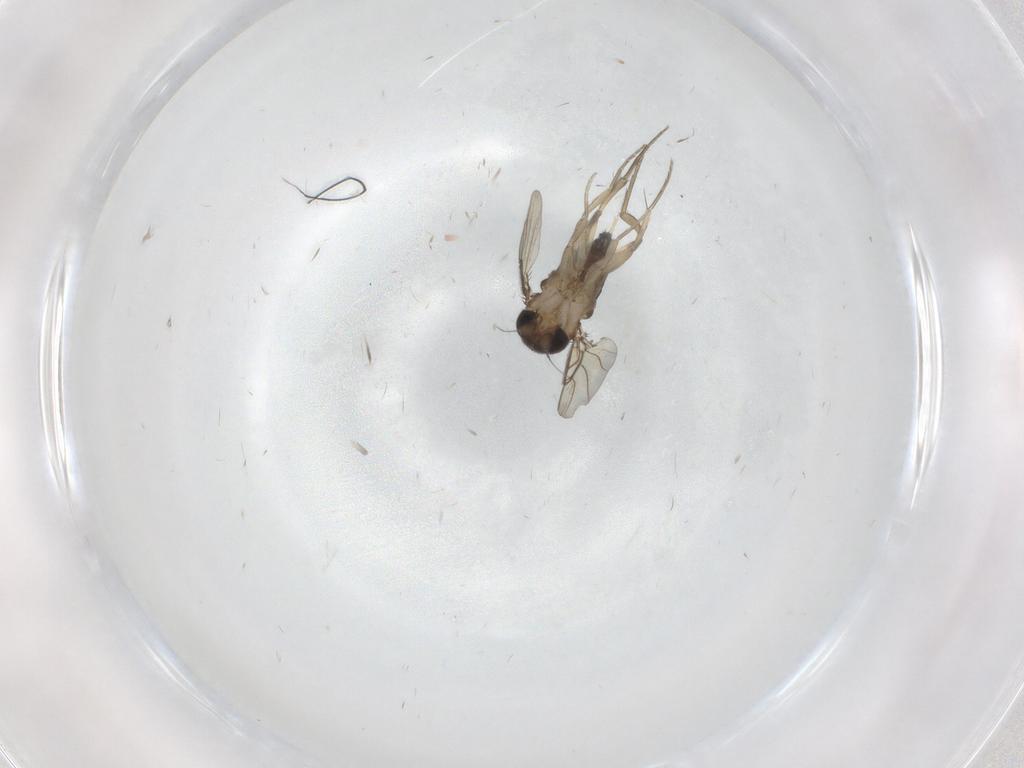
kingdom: Animalia
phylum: Arthropoda
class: Insecta
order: Diptera
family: Phoridae
